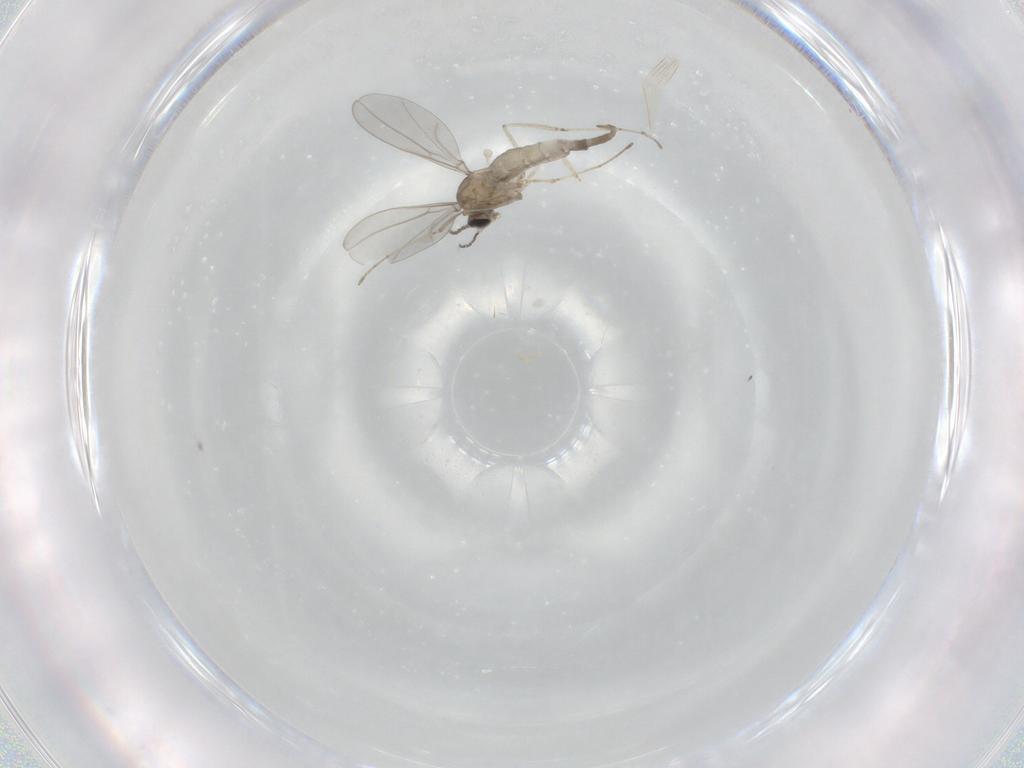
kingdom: Animalia
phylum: Arthropoda
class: Insecta
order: Diptera
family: Cecidomyiidae
